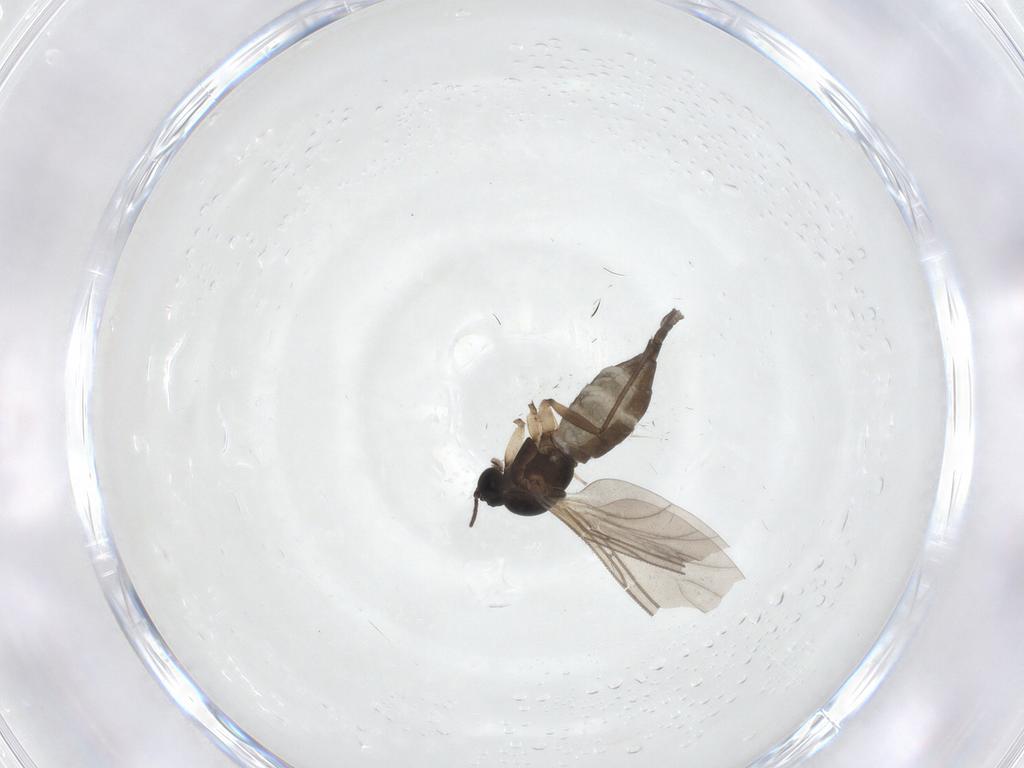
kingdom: Animalia
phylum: Arthropoda
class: Insecta
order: Diptera
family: Sciaridae
